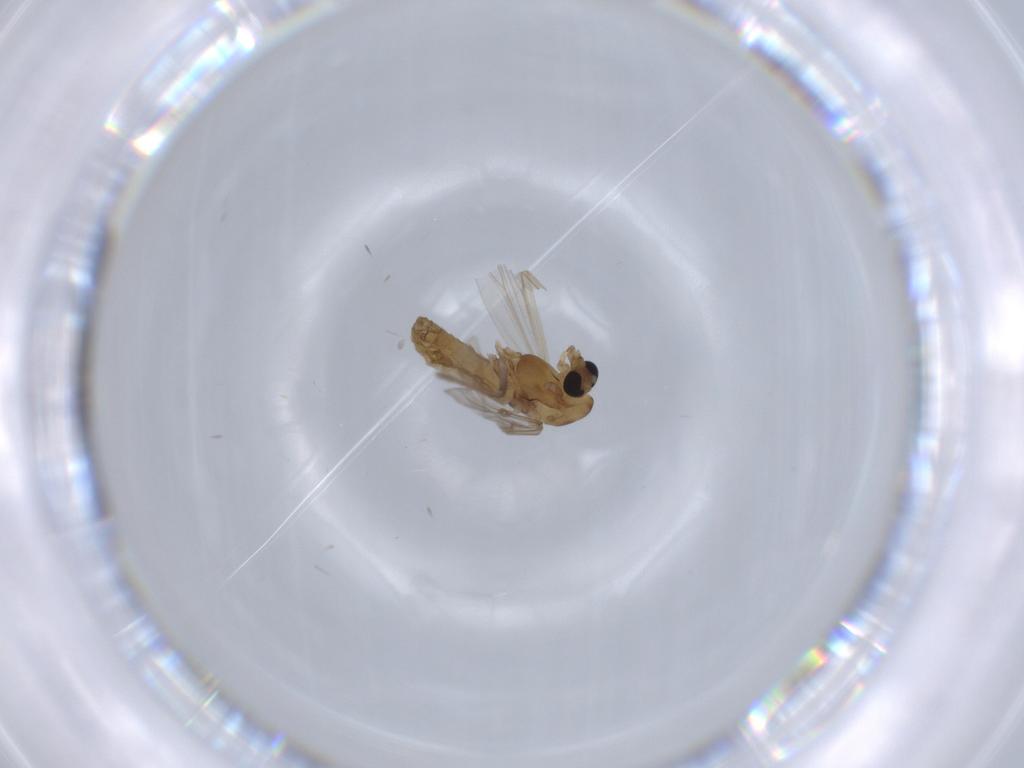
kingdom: Animalia
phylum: Arthropoda
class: Insecta
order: Diptera
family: Chironomidae
